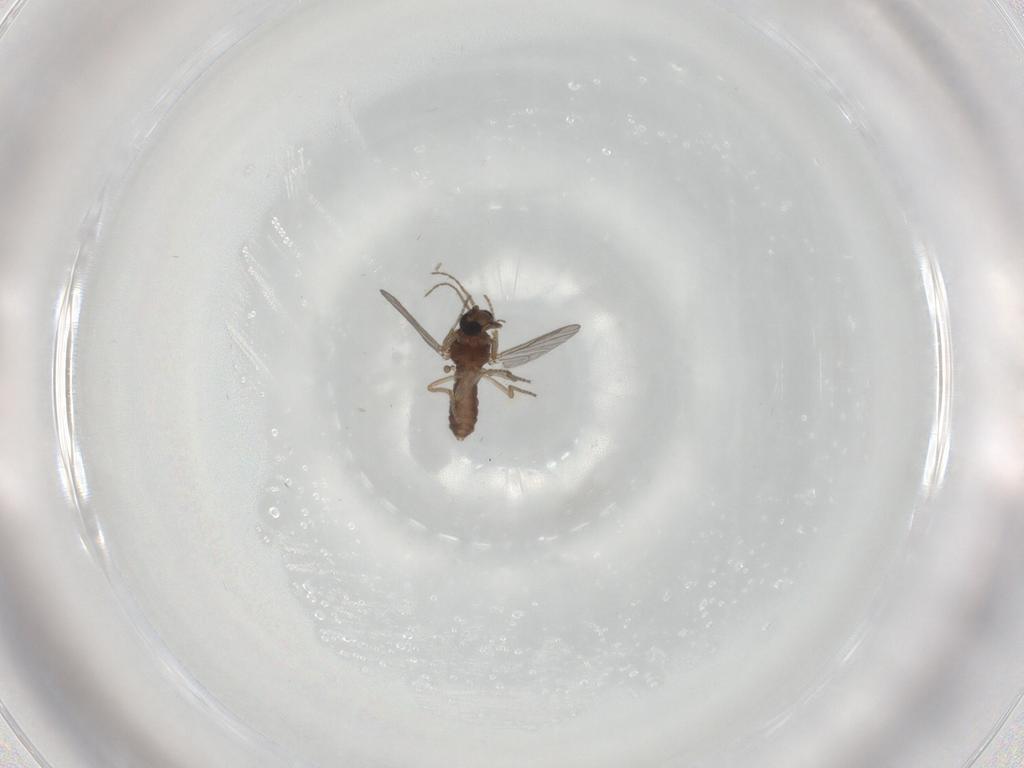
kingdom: Animalia
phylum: Arthropoda
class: Insecta
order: Diptera
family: Ceratopogonidae
